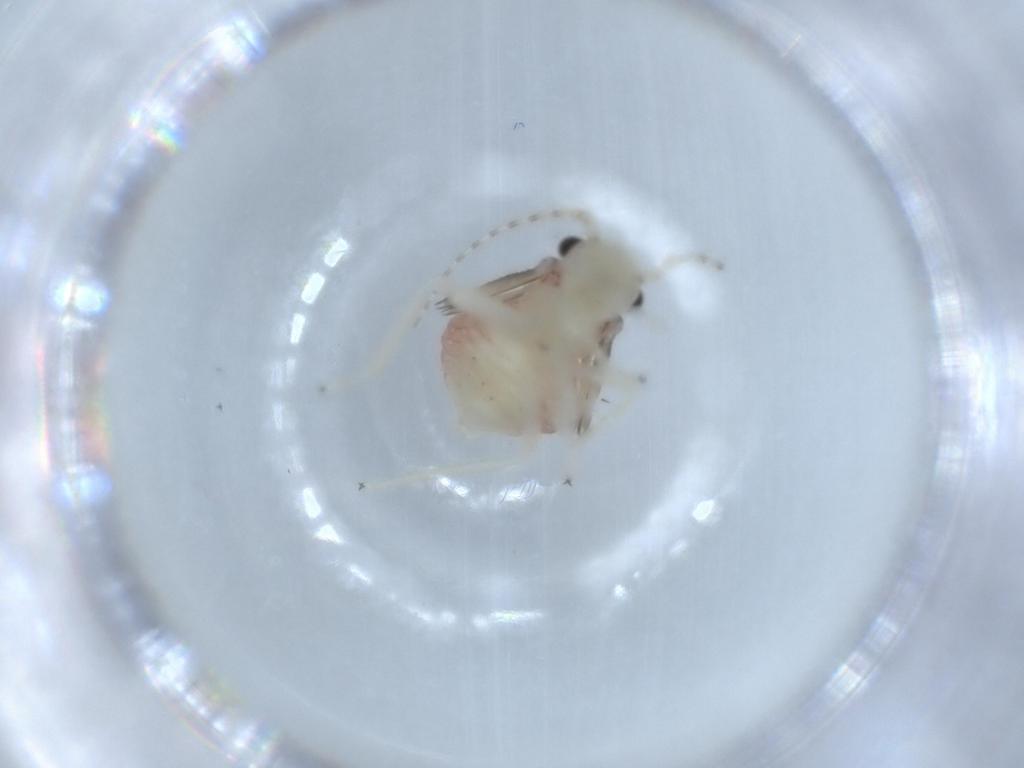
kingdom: Animalia
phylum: Arthropoda
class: Insecta
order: Psocodea
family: Amphipsocidae
